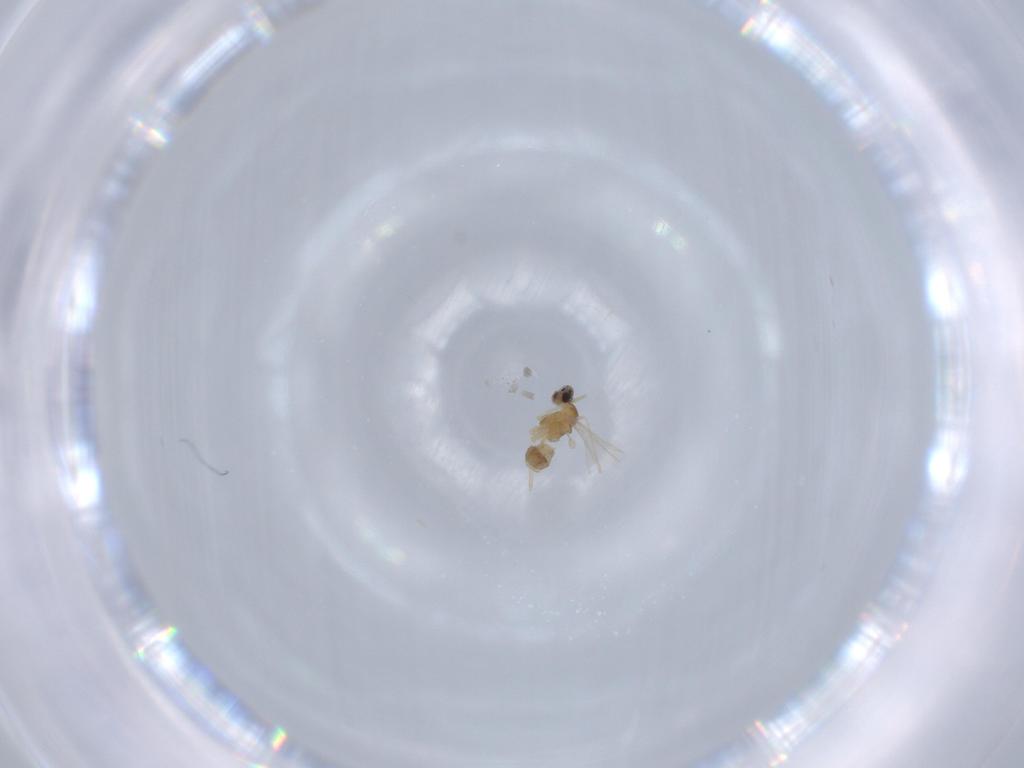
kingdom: Animalia
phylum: Arthropoda
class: Insecta
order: Diptera
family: Cecidomyiidae
